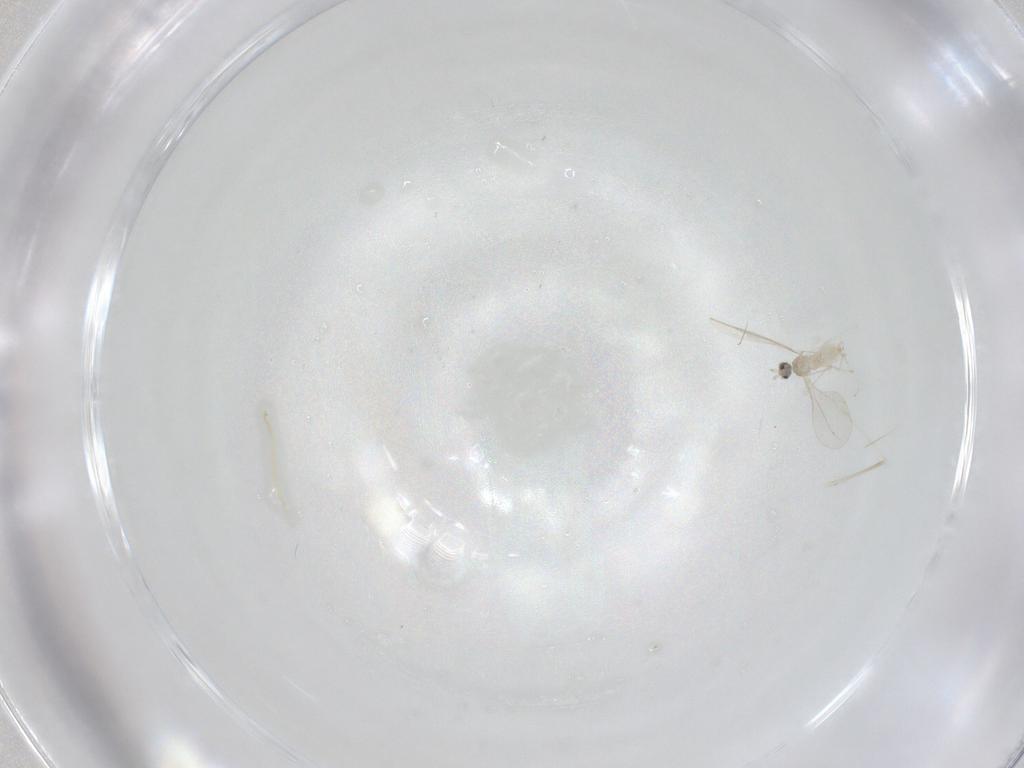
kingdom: Animalia
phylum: Arthropoda
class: Insecta
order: Diptera
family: Cecidomyiidae
